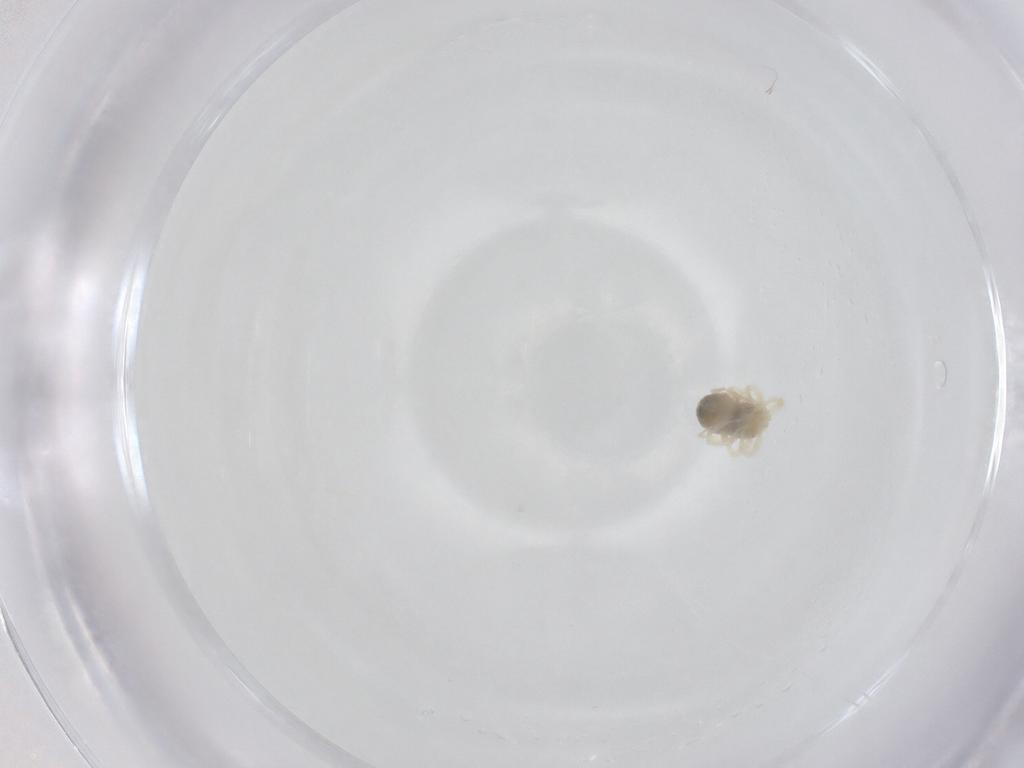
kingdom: Animalia
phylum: Arthropoda
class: Arachnida
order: Trombidiformes
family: Anystidae
